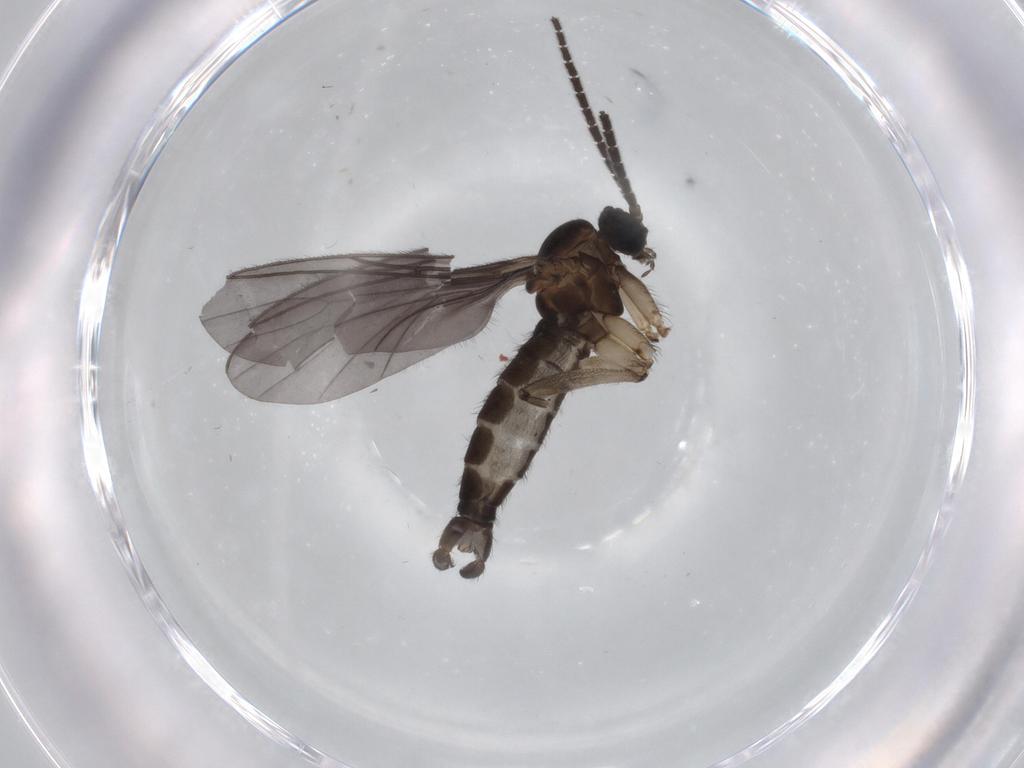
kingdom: Animalia
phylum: Arthropoda
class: Insecta
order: Diptera
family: Sciaridae
